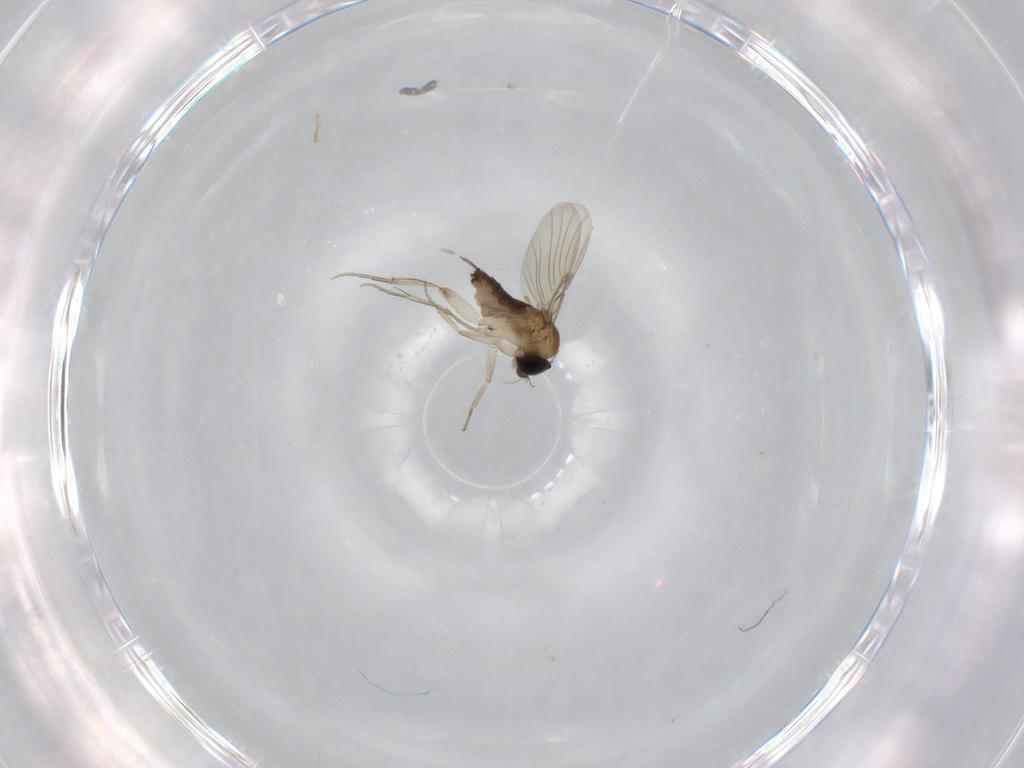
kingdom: Animalia
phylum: Arthropoda
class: Insecta
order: Diptera
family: Phoridae
